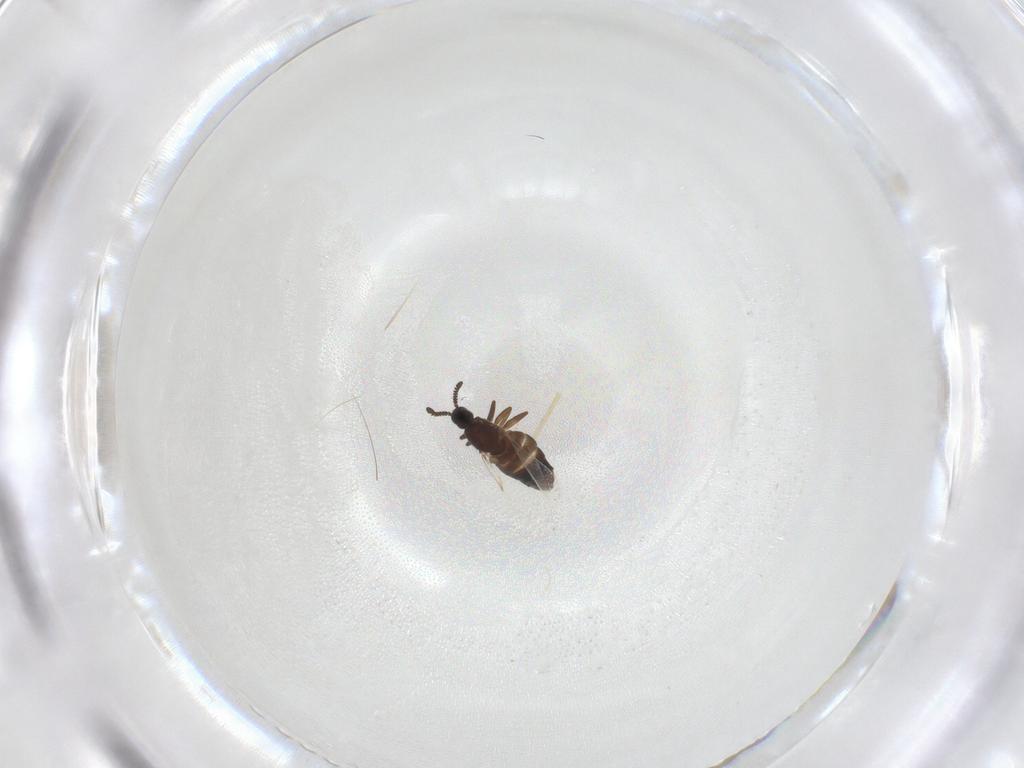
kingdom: Animalia
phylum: Arthropoda
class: Insecta
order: Diptera
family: Scatopsidae
